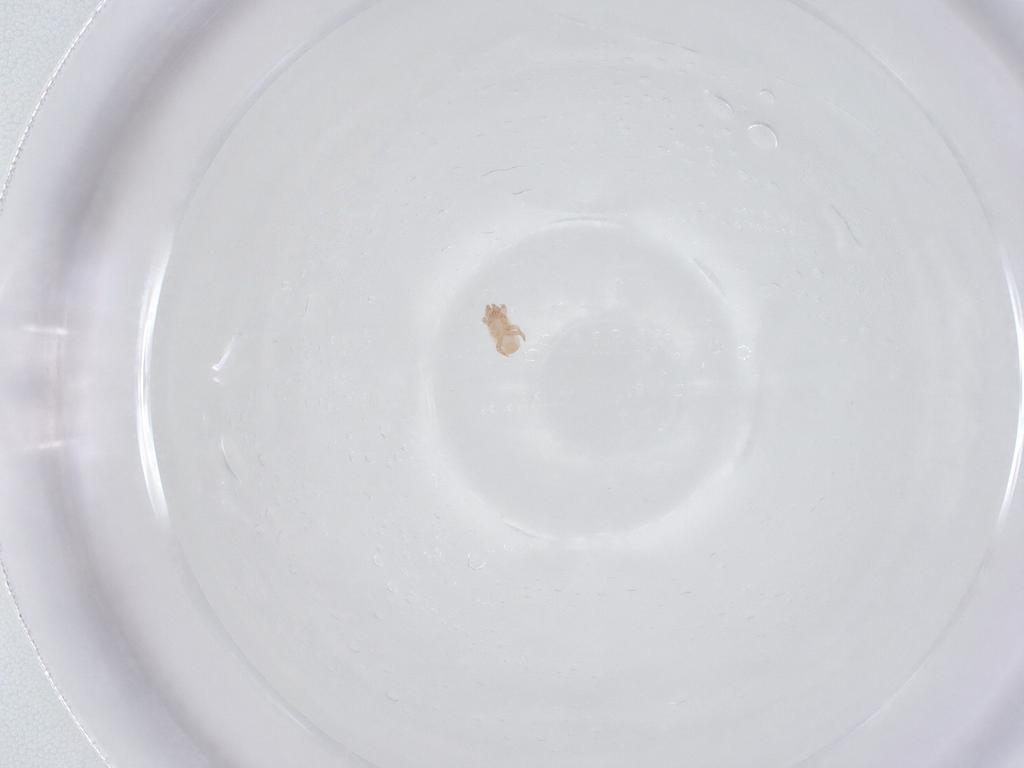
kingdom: Animalia
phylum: Arthropoda
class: Arachnida
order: Mesostigmata
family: Digamasellidae
